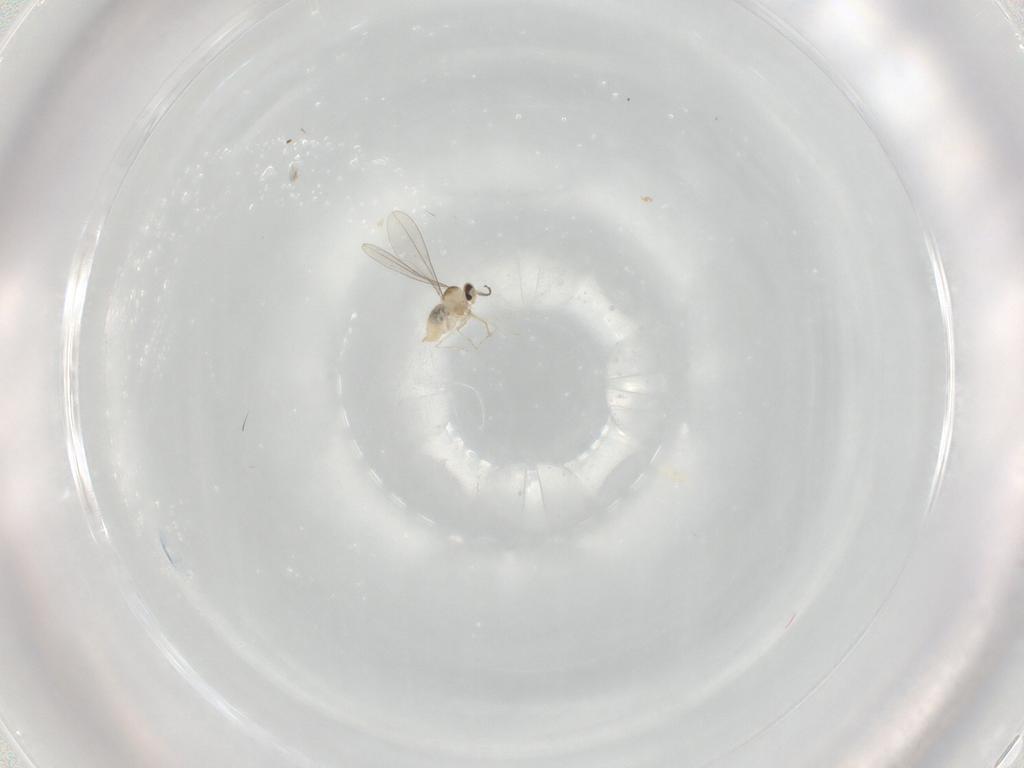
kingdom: Animalia
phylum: Arthropoda
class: Insecta
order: Diptera
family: Cecidomyiidae
